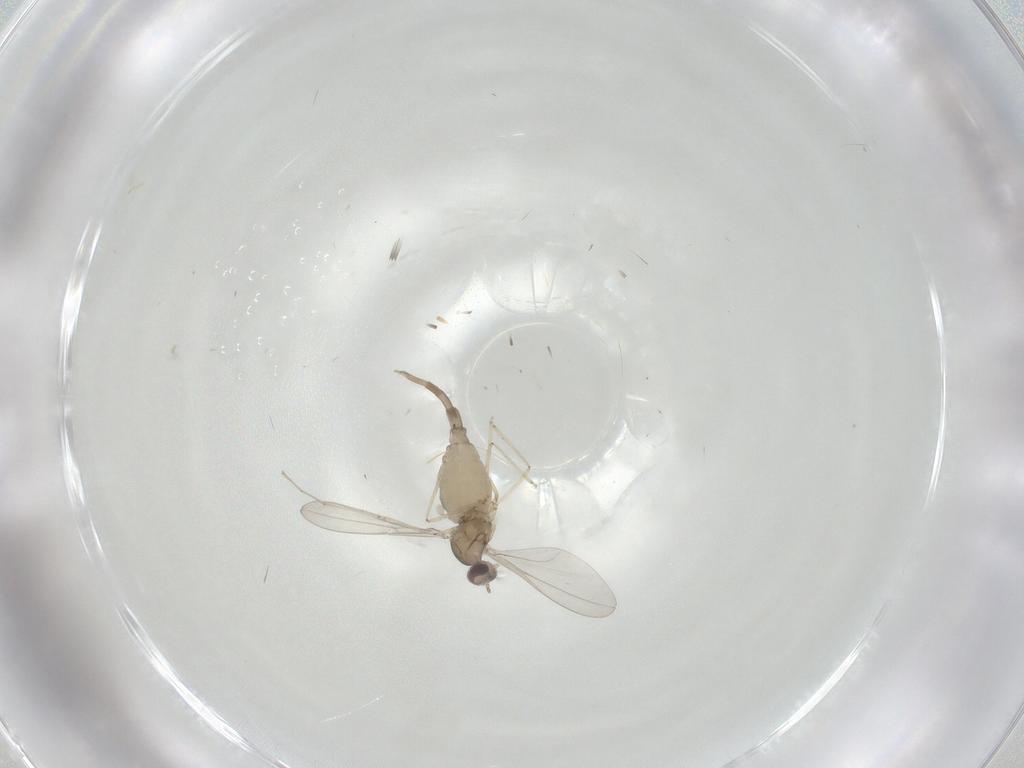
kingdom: Animalia
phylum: Arthropoda
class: Insecta
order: Diptera
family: Cecidomyiidae
